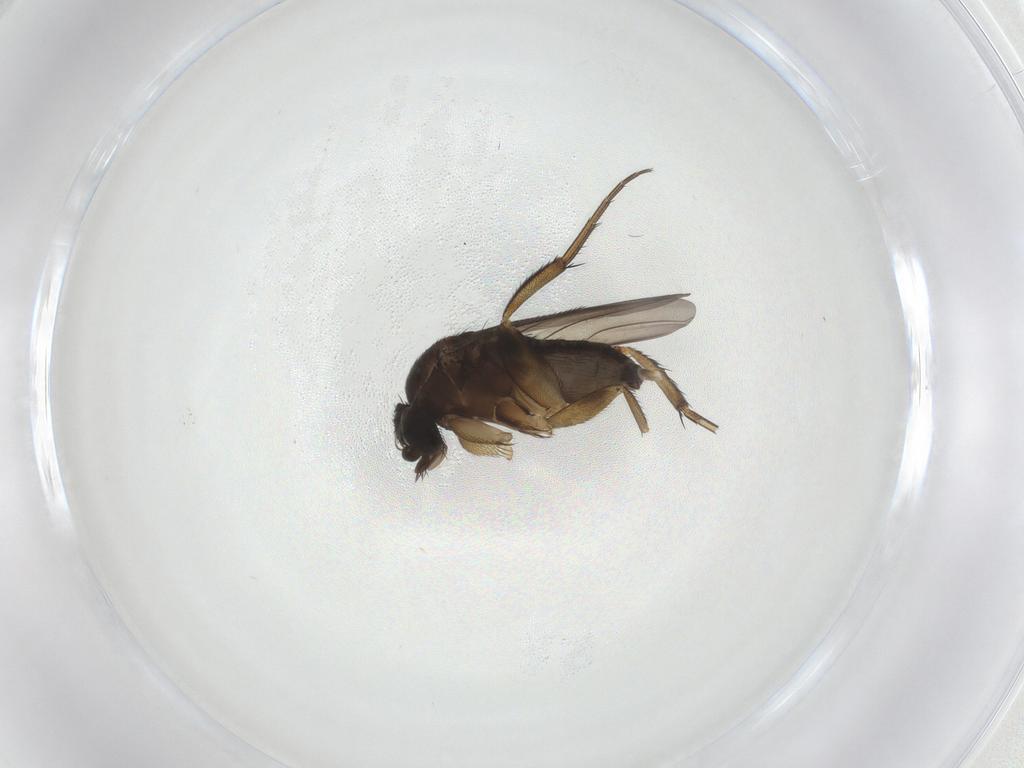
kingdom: Animalia
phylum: Arthropoda
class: Insecta
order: Diptera
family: Phoridae
